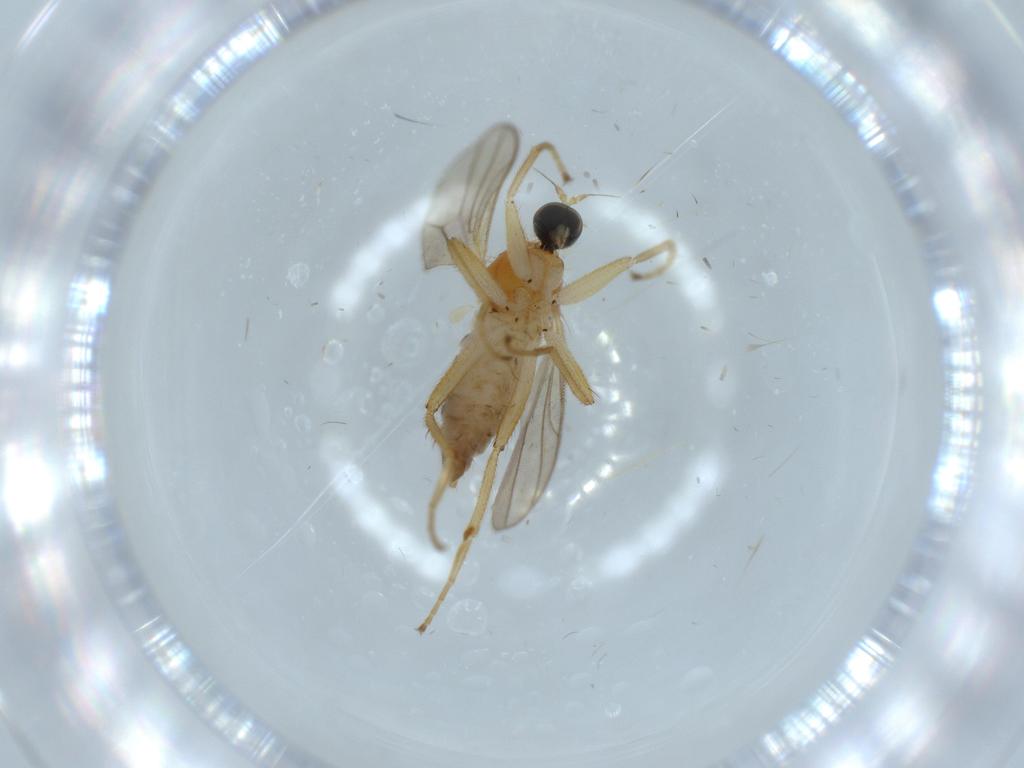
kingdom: Animalia
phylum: Arthropoda
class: Insecta
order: Diptera
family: Hybotidae
